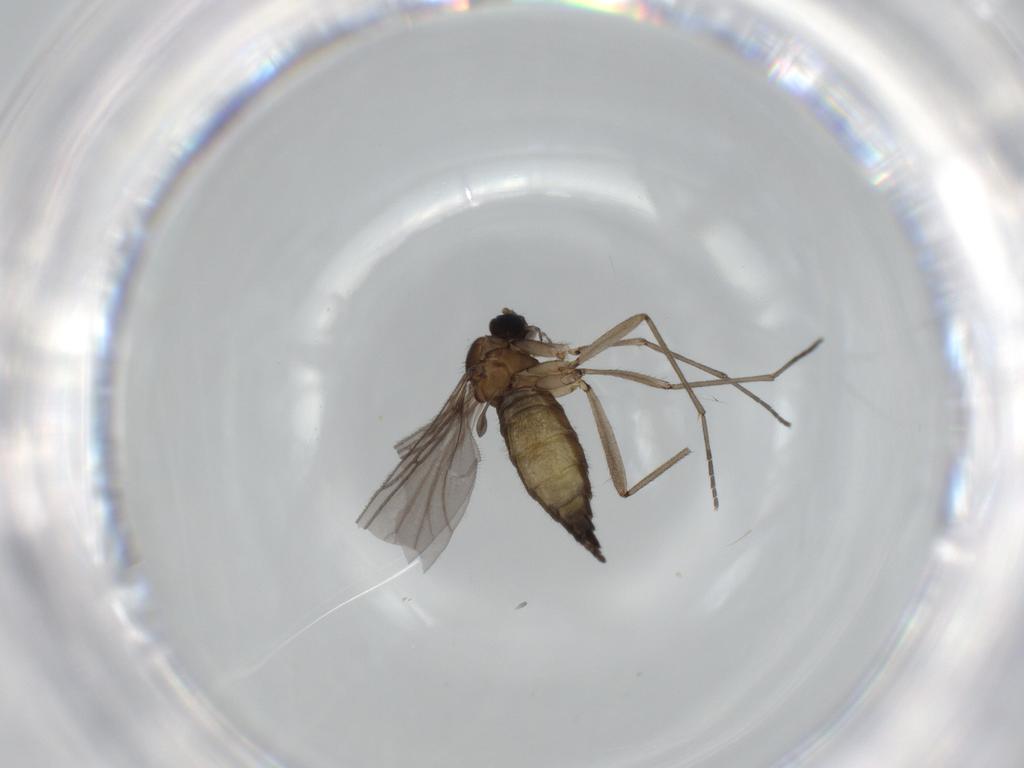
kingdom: Animalia
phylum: Arthropoda
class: Insecta
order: Diptera
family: Sciaridae
